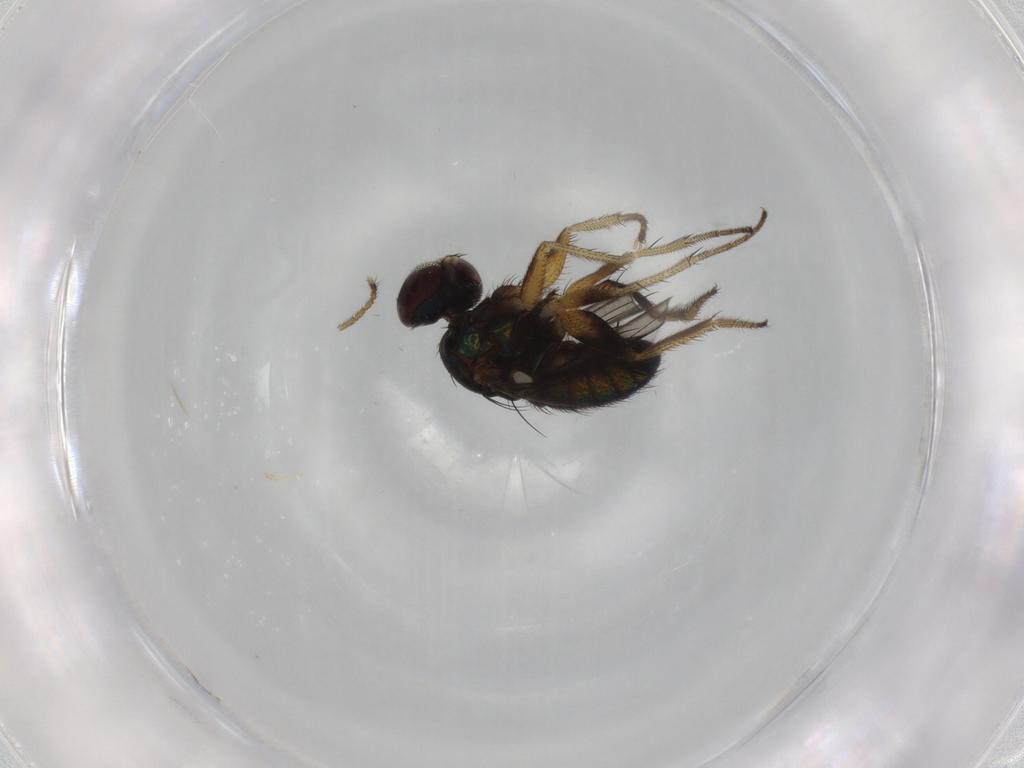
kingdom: Animalia
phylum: Arthropoda
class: Insecta
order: Diptera
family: Dolichopodidae
